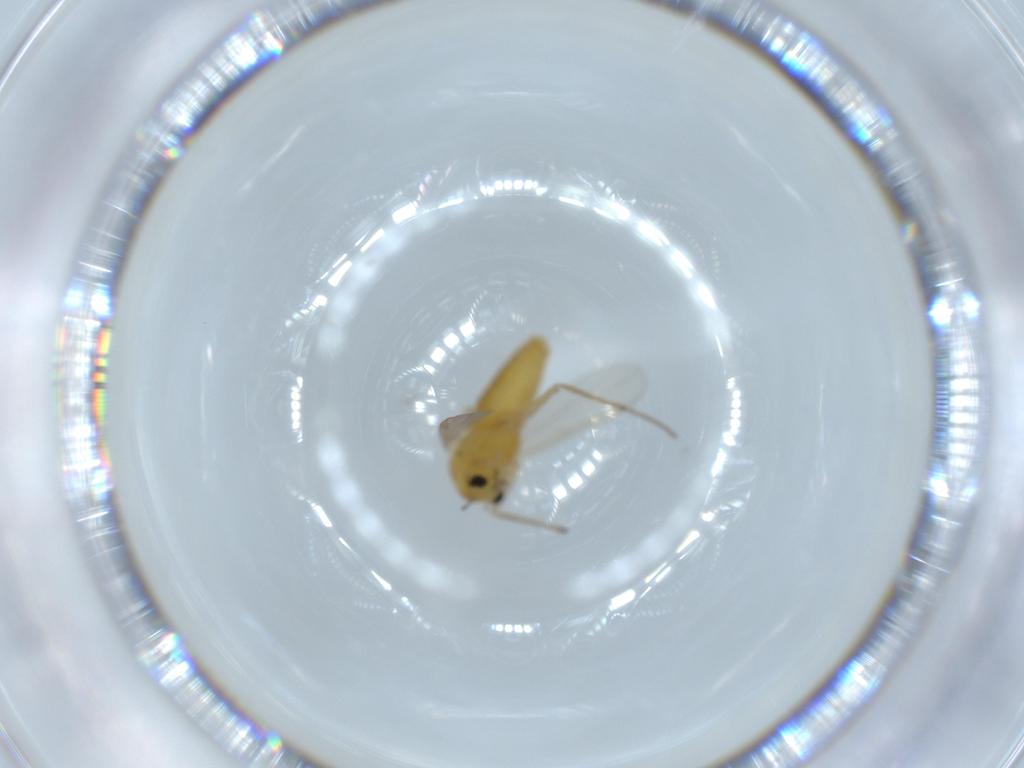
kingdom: Animalia
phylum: Arthropoda
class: Insecta
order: Diptera
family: Chironomidae
